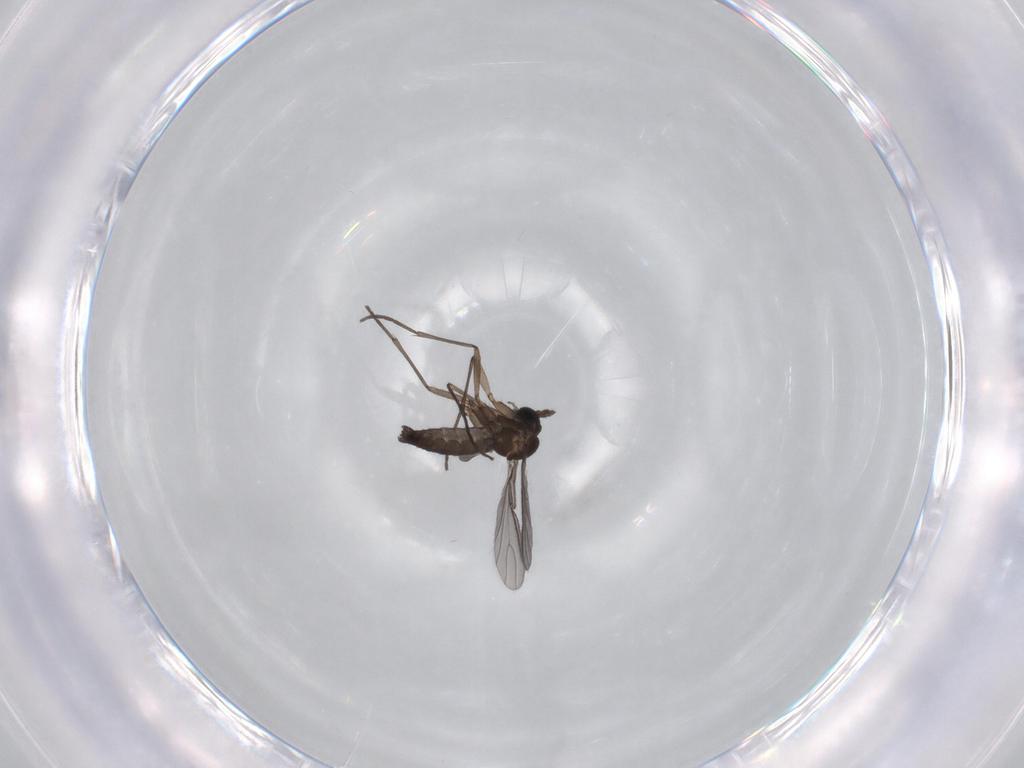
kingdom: Animalia
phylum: Arthropoda
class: Insecta
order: Diptera
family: Sciaridae
